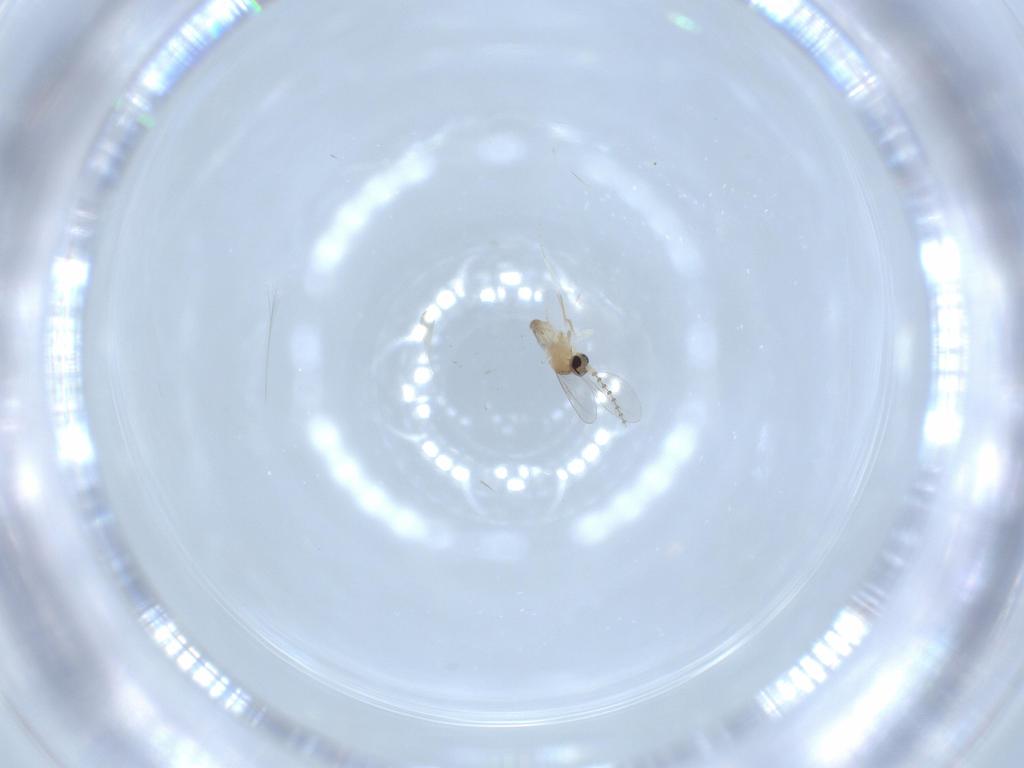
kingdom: Animalia
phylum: Arthropoda
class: Insecta
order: Diptera
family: Cecidomyiidae
